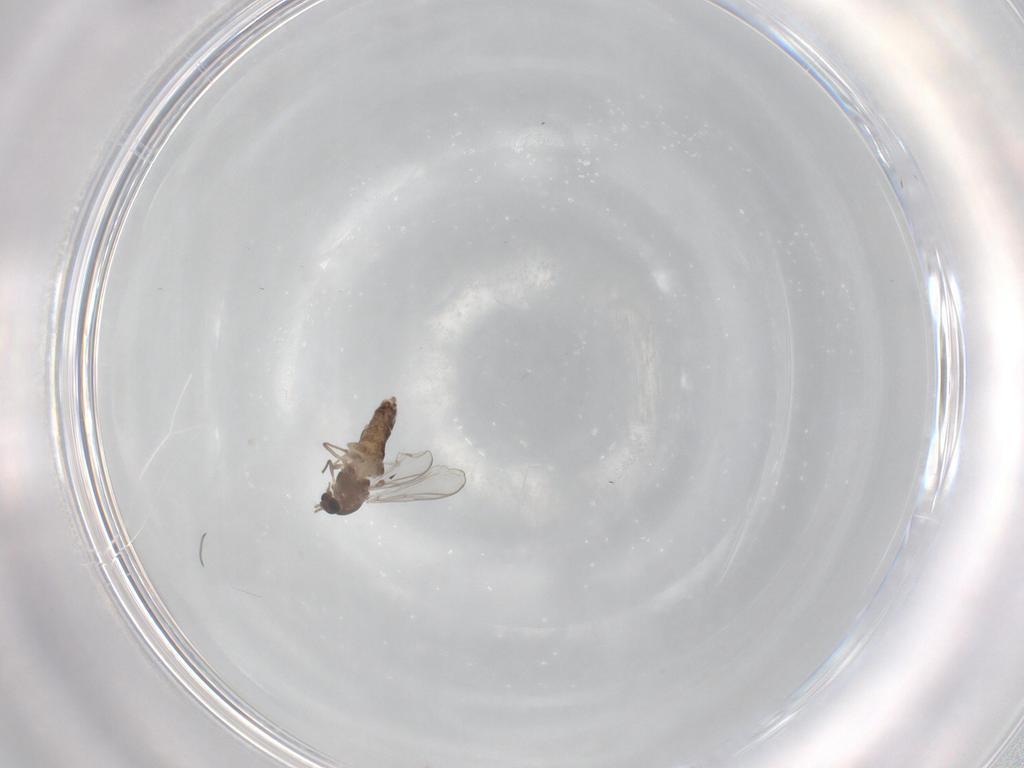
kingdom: Animalia
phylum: Arthropoda
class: Insecta
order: Diptera
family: Chironomidae
